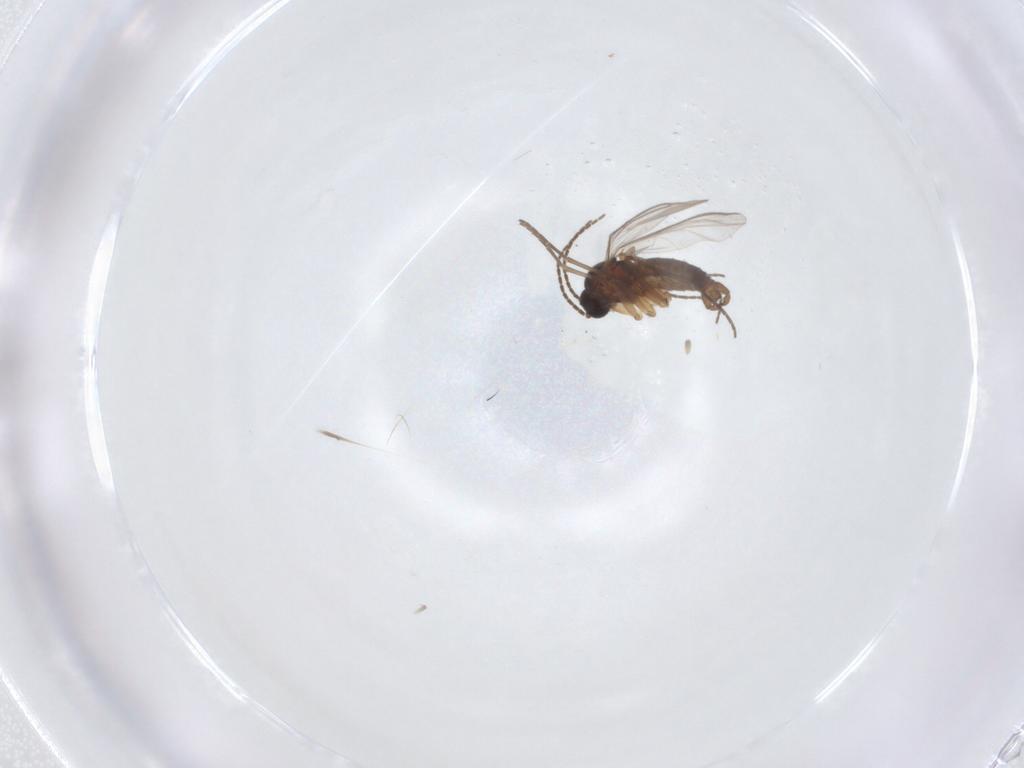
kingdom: Animalia
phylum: Arthropoda
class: Insecta
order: Diptera
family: Sciaridae
